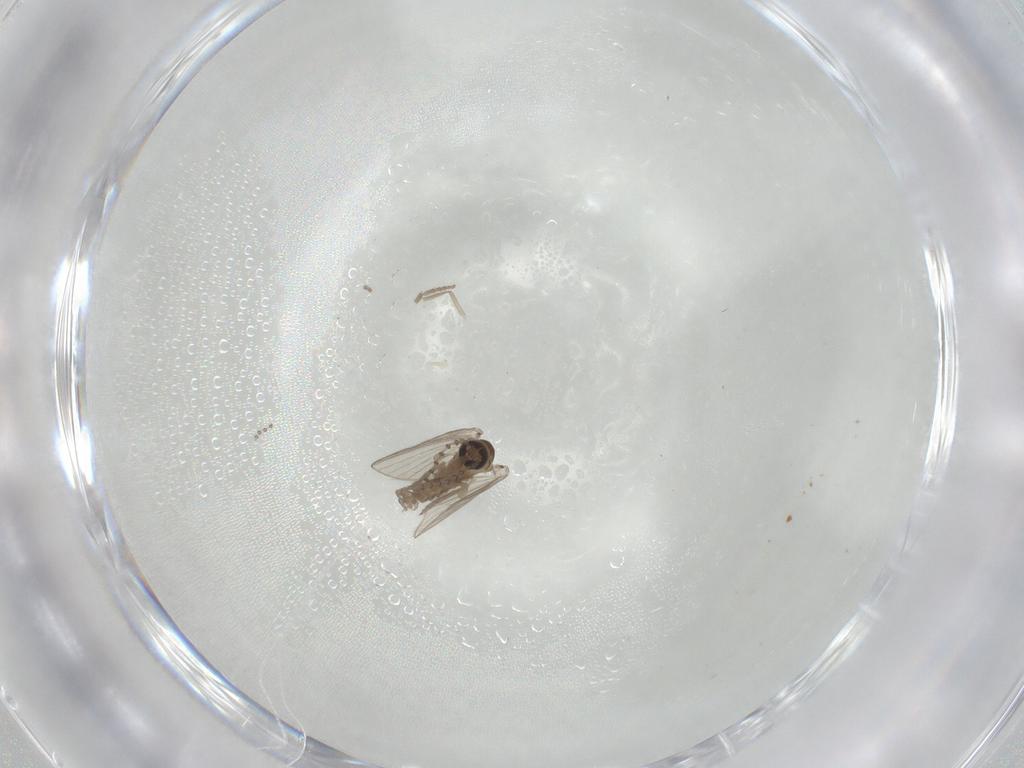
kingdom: Animalia
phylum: Arthropoda
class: Insecta
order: Diptera
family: Psychodidae
